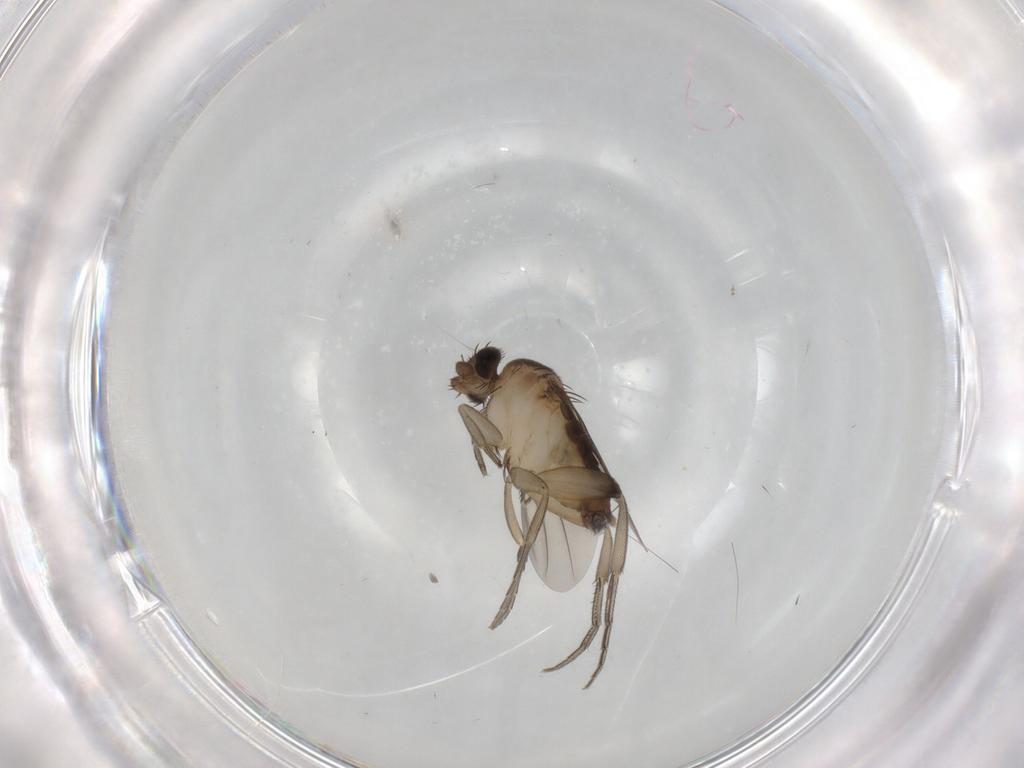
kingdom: Animalia
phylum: Arthropoda
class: Insecta
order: Diptera
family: Phoridae
